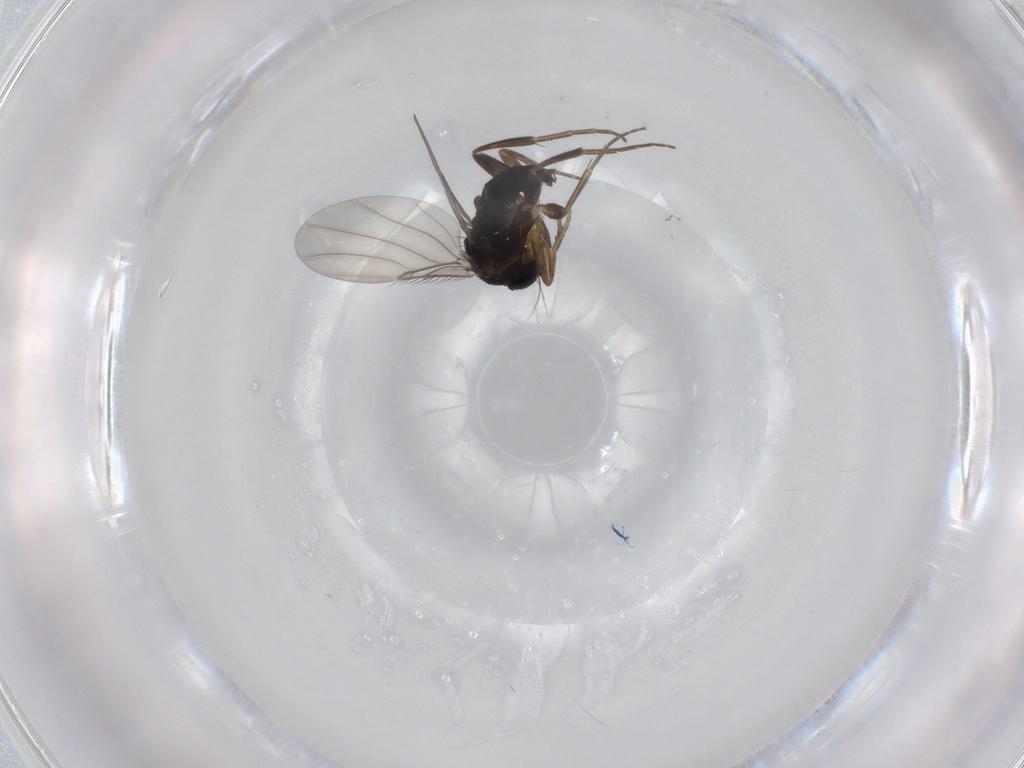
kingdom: Animalia
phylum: Arthropoda
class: Insecta
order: Diptera
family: Phoridae
